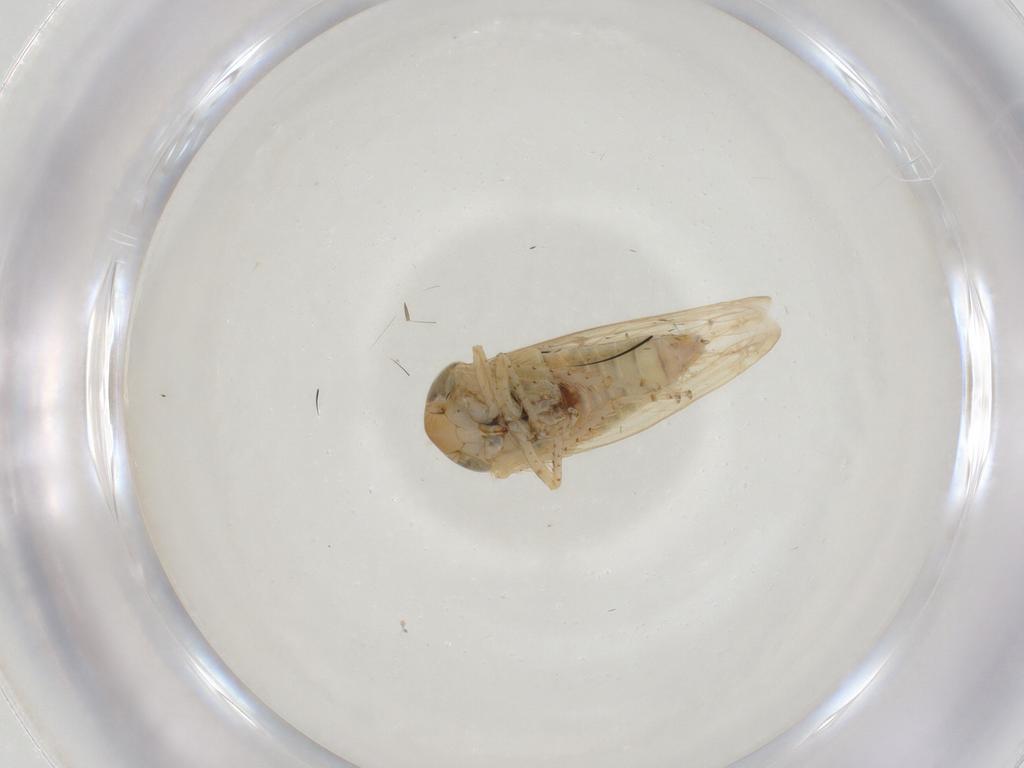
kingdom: Animalia
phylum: Arthropoda
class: Insecta
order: Hemiptera
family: Cicadellidae
